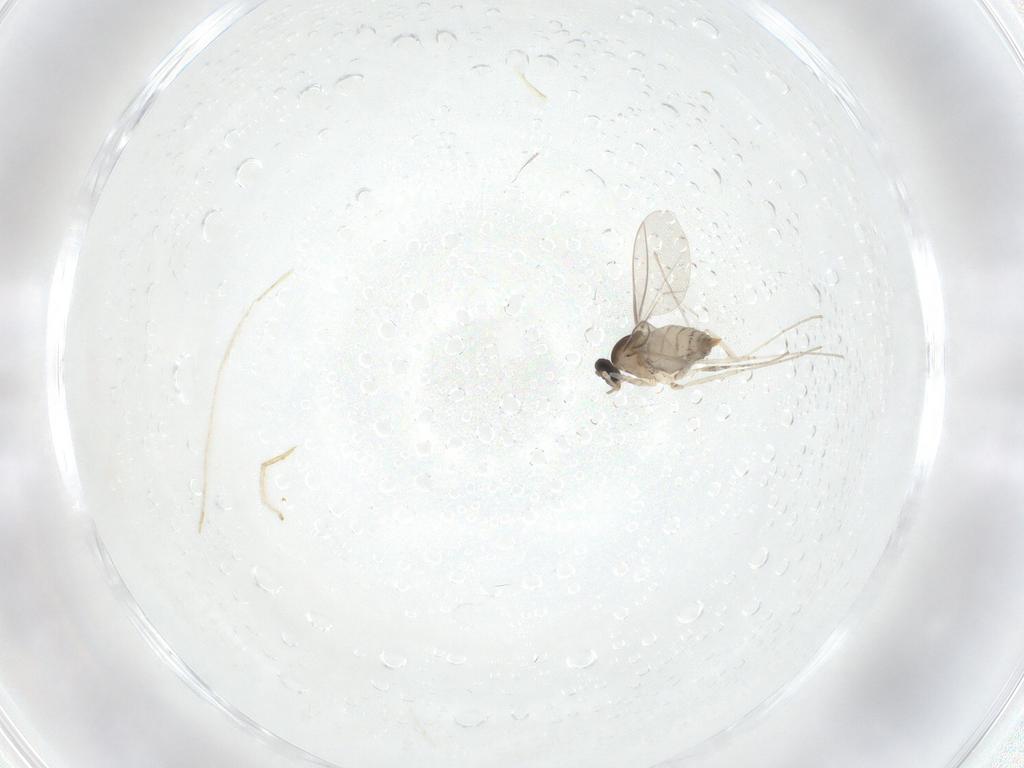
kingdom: Animalia
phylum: Arthropoda
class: Insecta
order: Diptera
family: Cecidomyiidae
